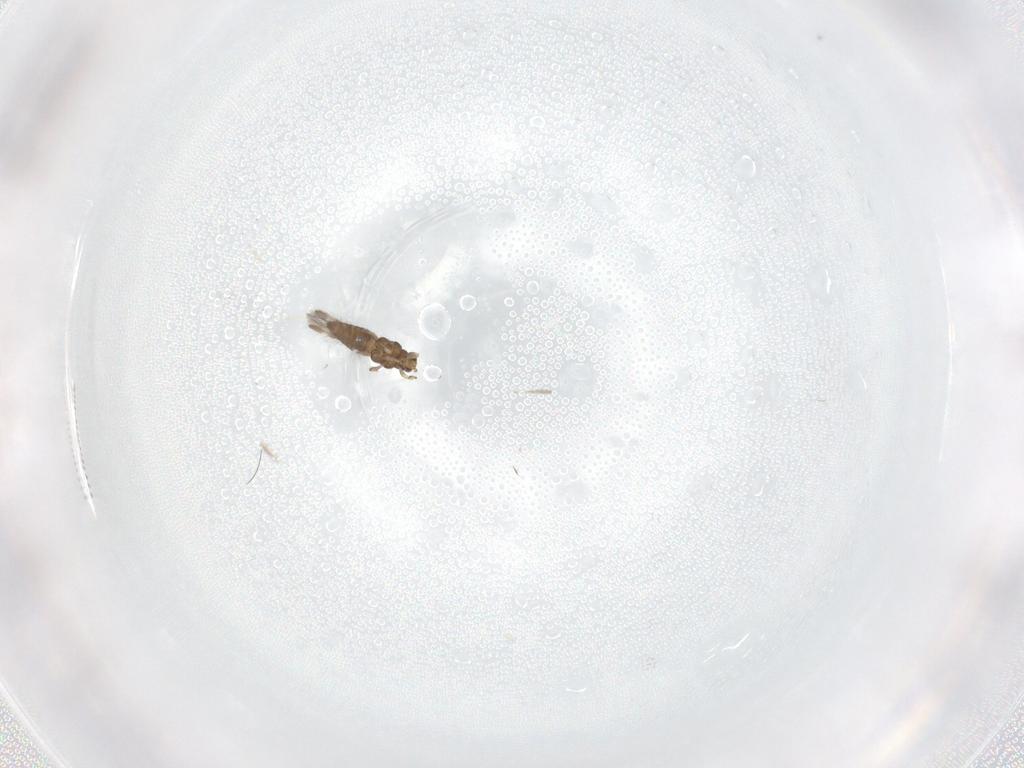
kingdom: Animalia
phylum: Arthropoda
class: Insecta
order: Diptera
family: Cecidomyiidae
